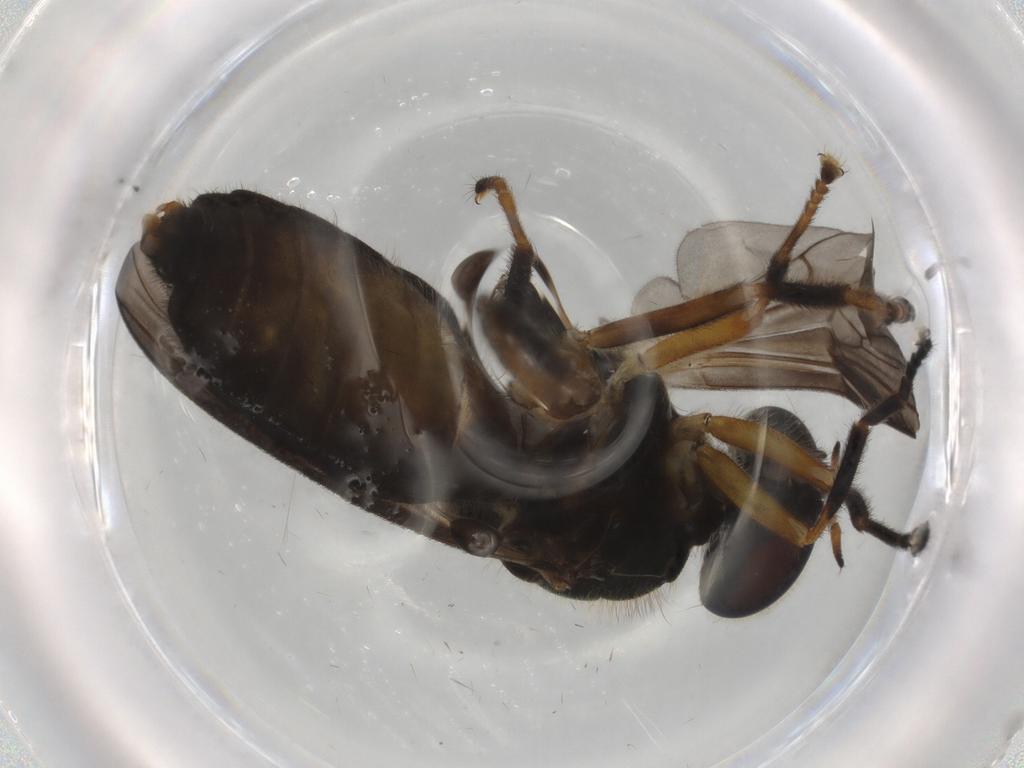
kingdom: Animalia
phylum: Arthropoda
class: Insecta
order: Diptera
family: Stratiomyidae
